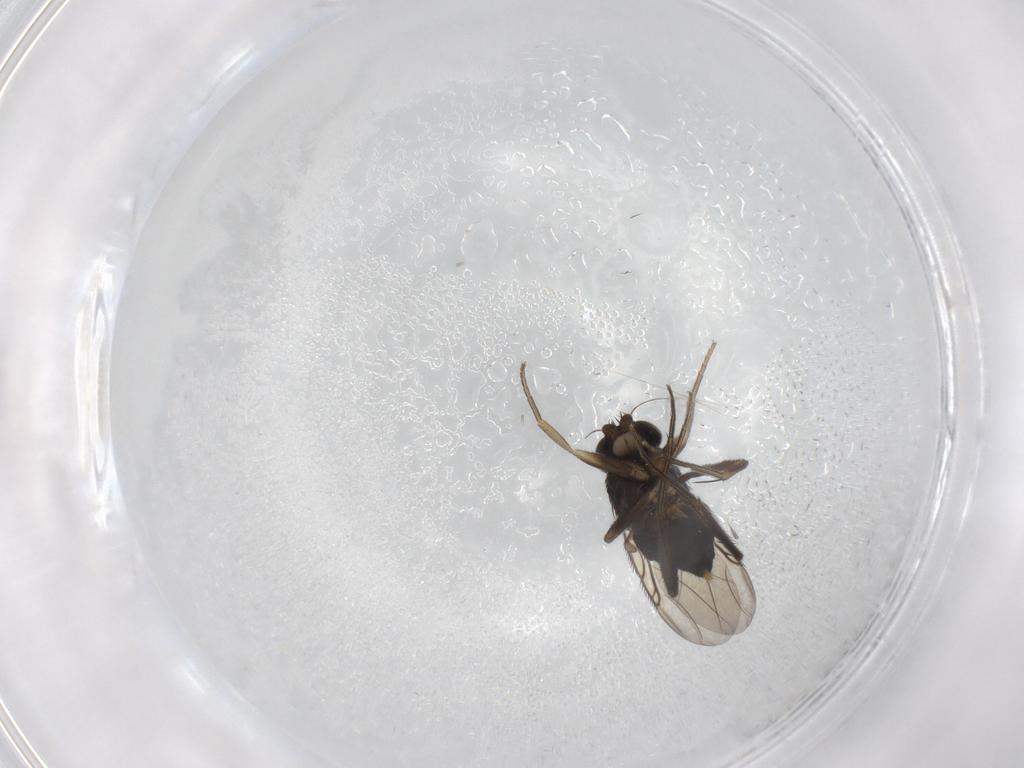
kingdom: Animalia
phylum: Arthropoda
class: Insecta
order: Diptera
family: Phoridae
